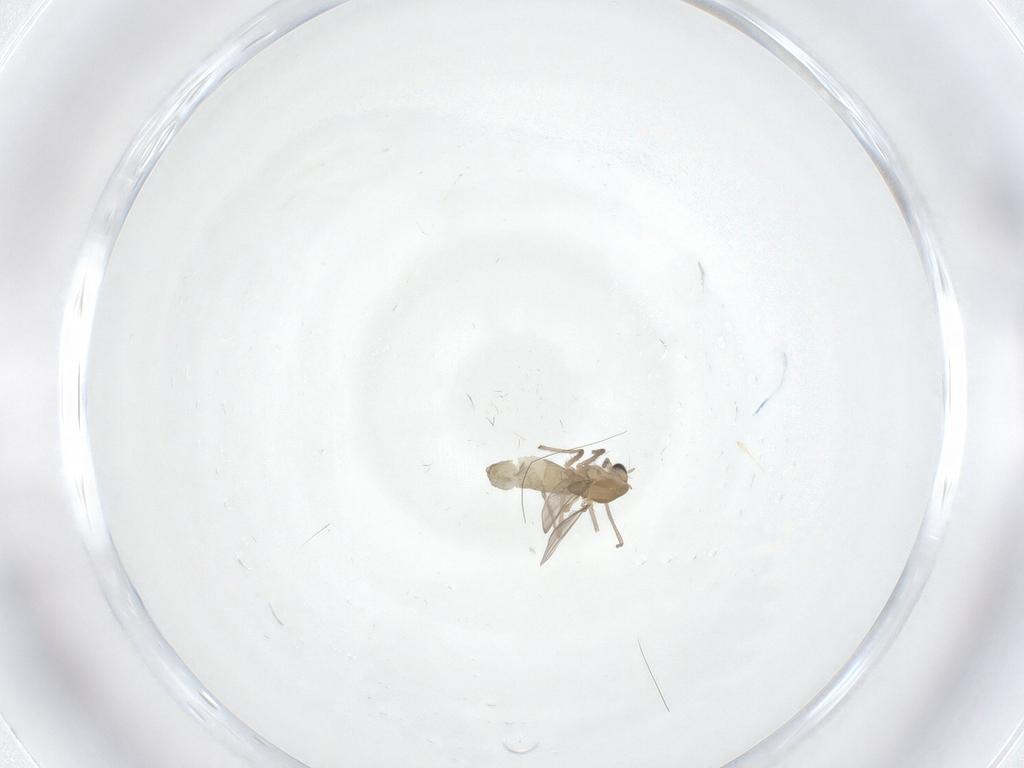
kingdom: Animalia
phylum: Arthropoda
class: Insecta
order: Diptera
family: Chironomidae
